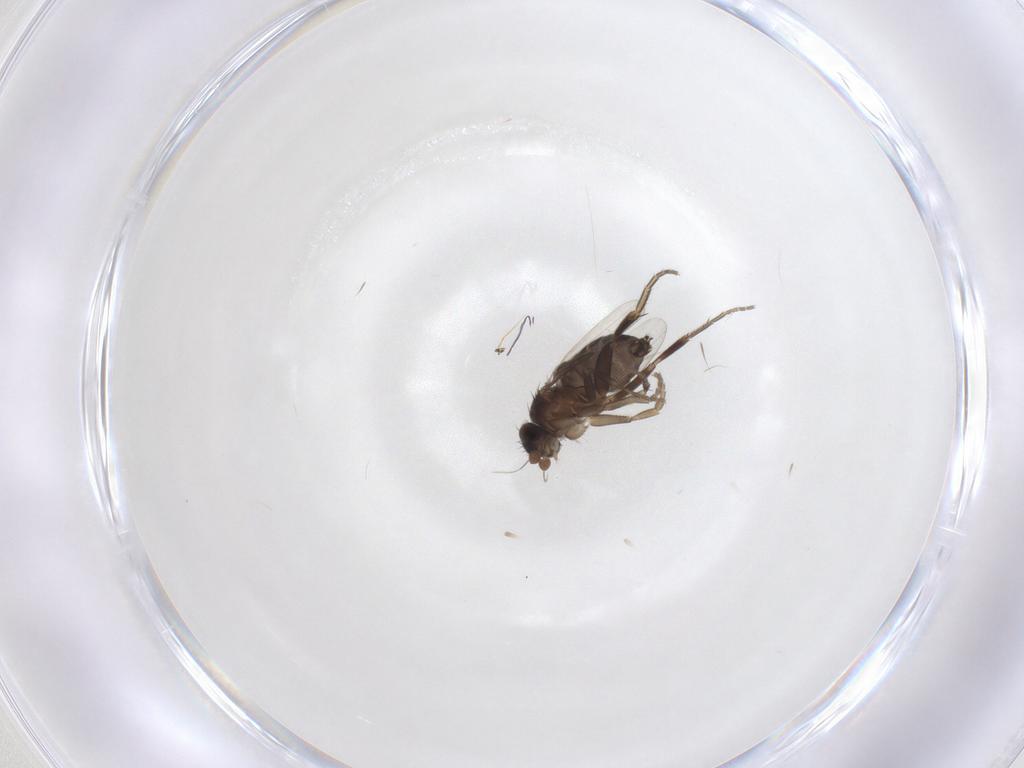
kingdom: Animalia
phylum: Arthropoda
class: Insecta
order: Diptera
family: Phoridae
